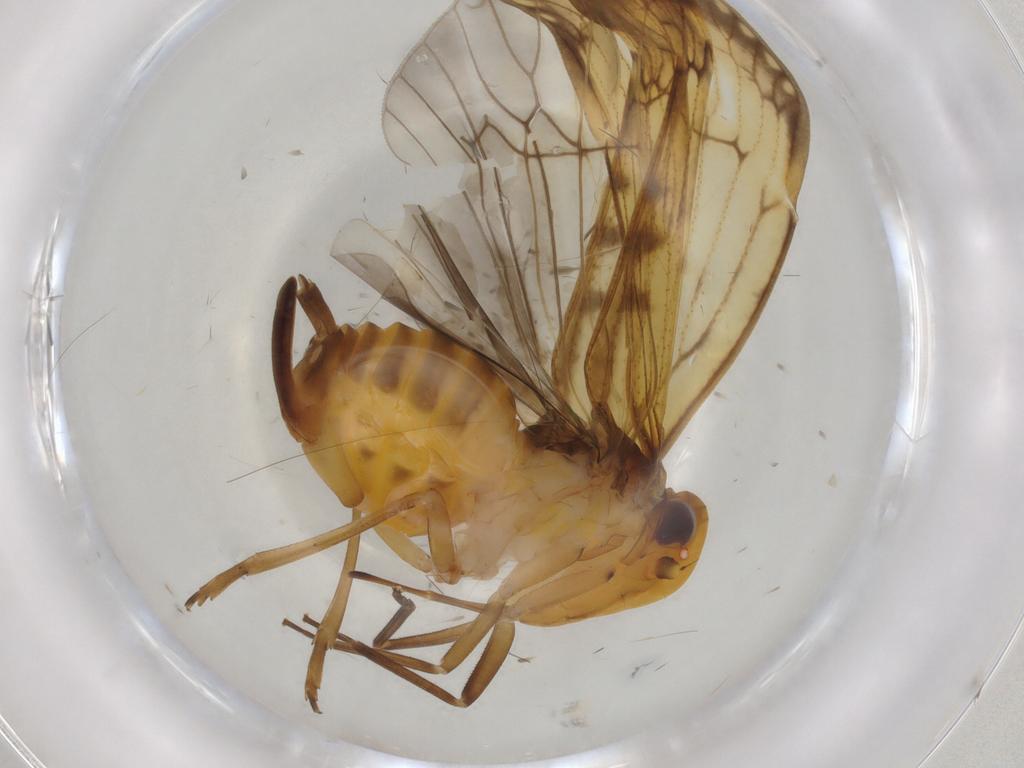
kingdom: Animalia
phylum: Arthropoda
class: Insecta
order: Hemiptera
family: Cixiidae
